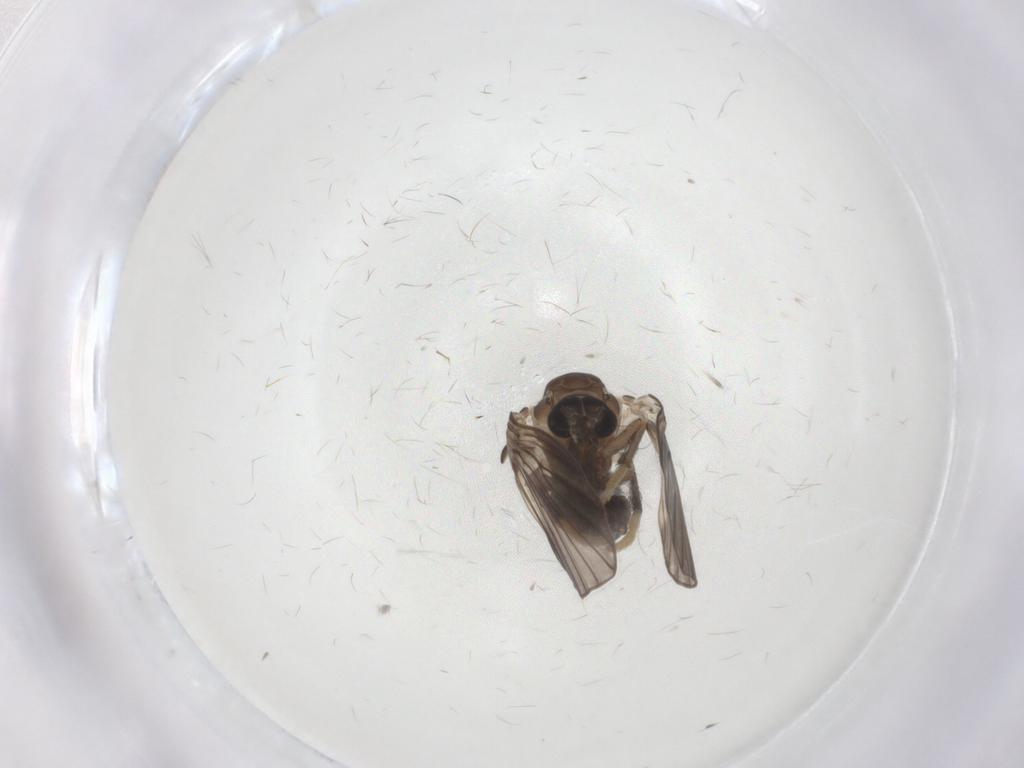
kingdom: Animalia
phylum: Arthropoda
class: Insecta
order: Diptera
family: Psychodidae
